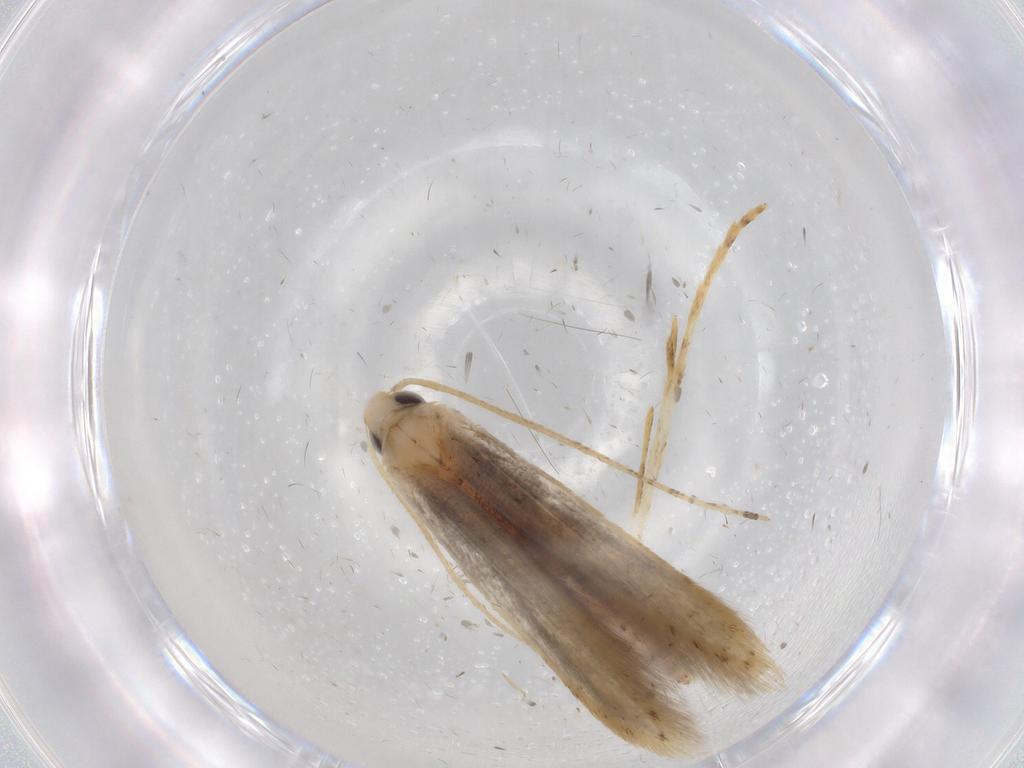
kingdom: Animalia
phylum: Arthropoda
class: Insecta
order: Lepidoptera
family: Batrachedridae
